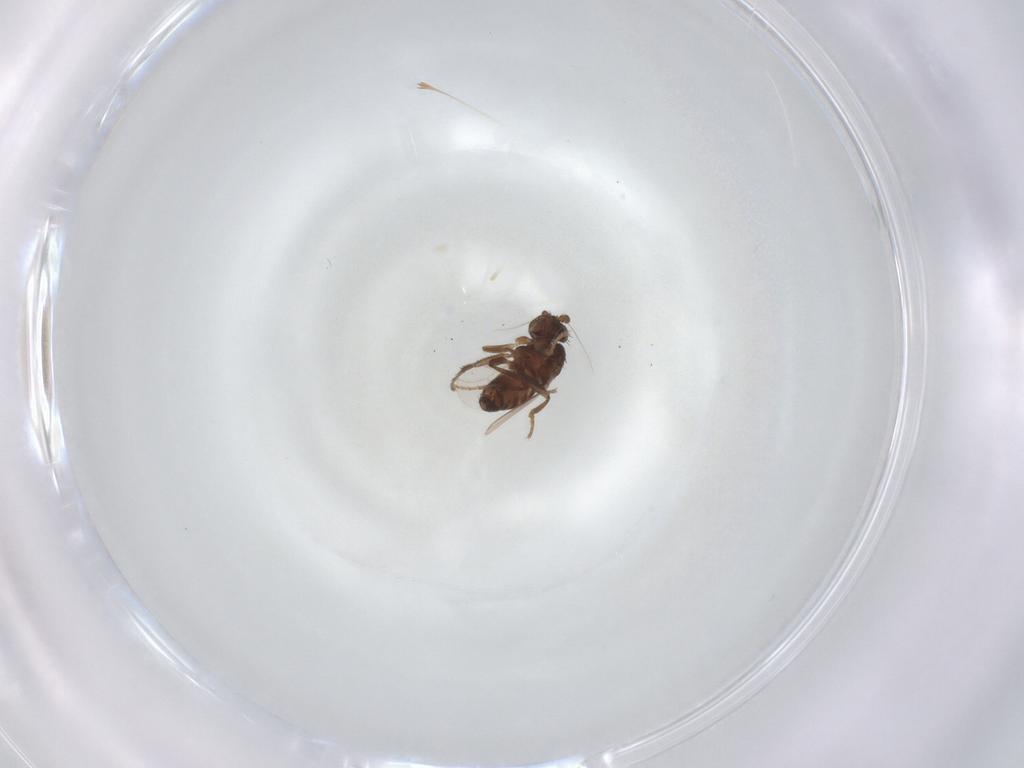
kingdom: Animalia
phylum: Arthropoda
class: Insecta
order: Diptera
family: Sphaeroceridae
